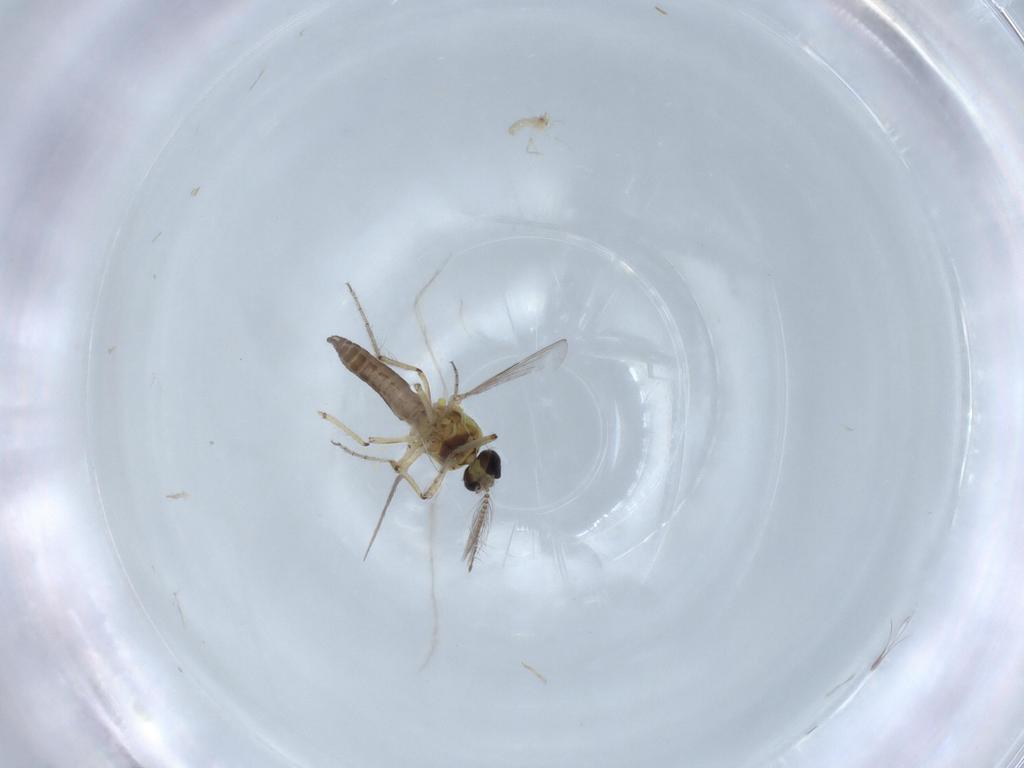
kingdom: Animalia
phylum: Arthropoda
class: Insecta
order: Diptera
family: Ceratopogonidae
